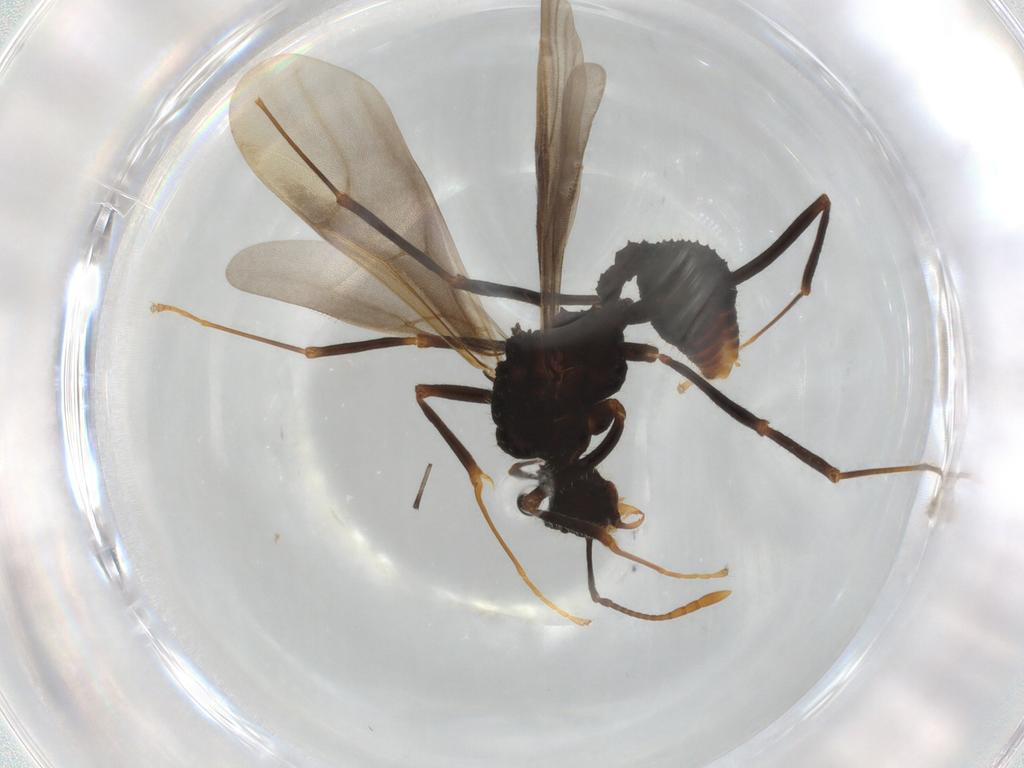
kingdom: Animalia
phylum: Arthropoda
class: Insecta
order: Hymenoptera
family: Formicidae
